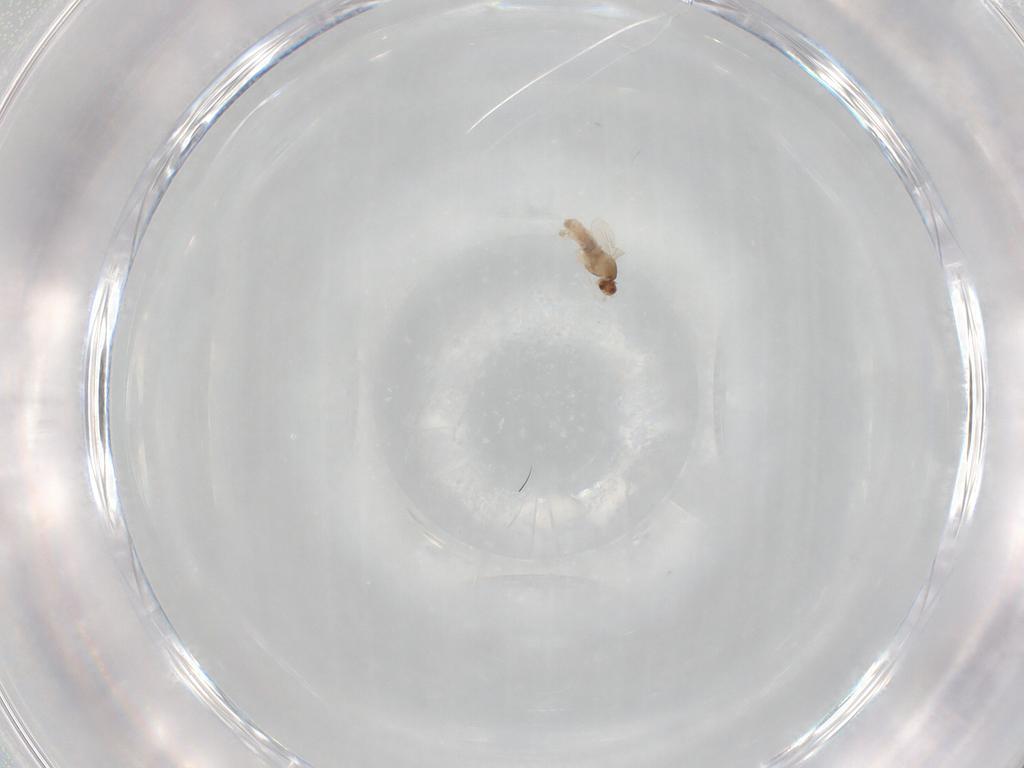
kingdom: Animalia
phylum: Arthropoda
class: Insecta
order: Diptera
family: Cecidomyiidae
